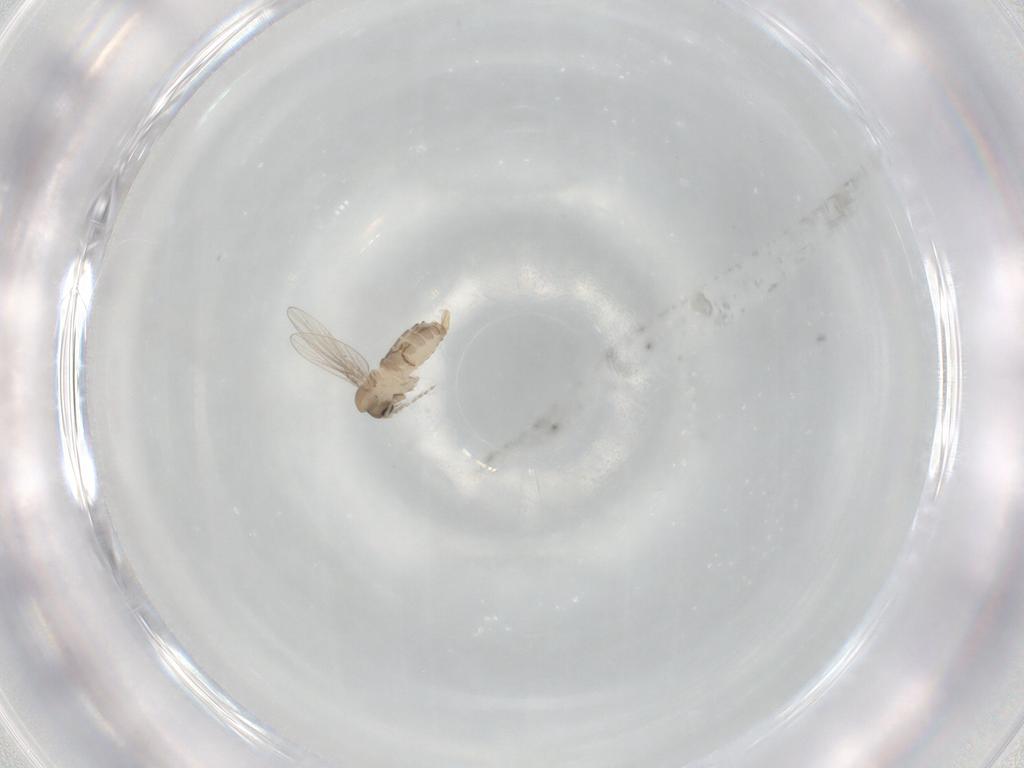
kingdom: Animalia
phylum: Arthropoda
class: Insecta
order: Diptera
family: Psychodidae
